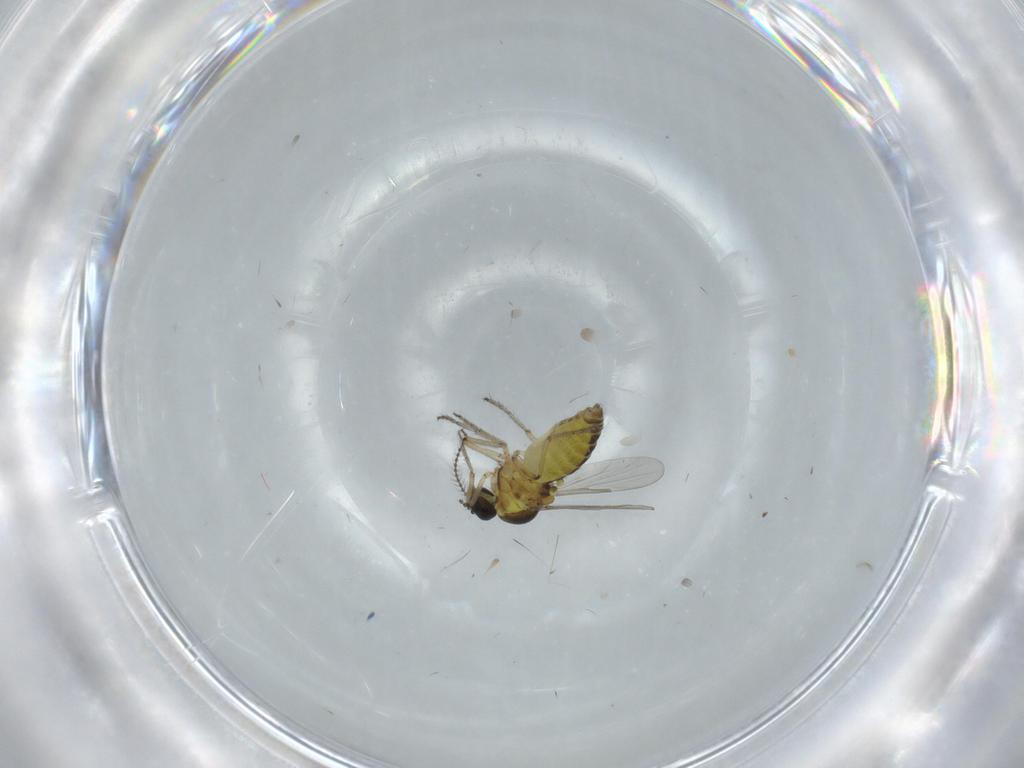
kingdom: Animalia
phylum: Arthropoda
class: Insecta
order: Diptera
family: Ceratopogonidae
